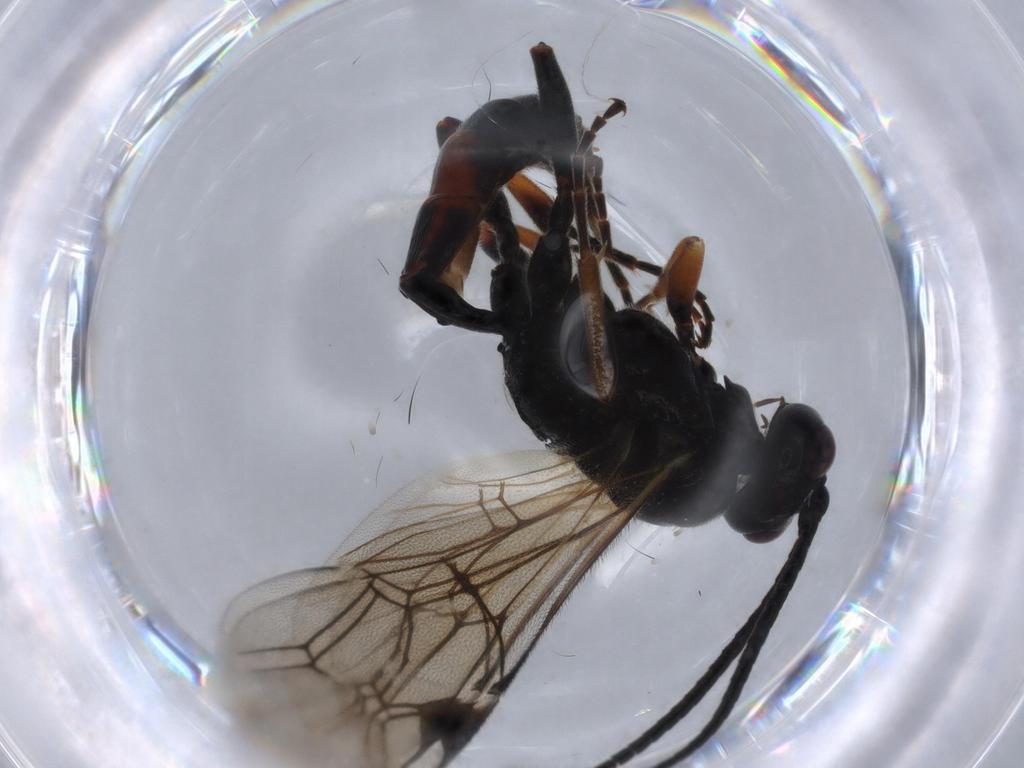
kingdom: Animalia
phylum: Arthropoda
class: Insecta
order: Hymenoptera
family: Ichneumonidae
